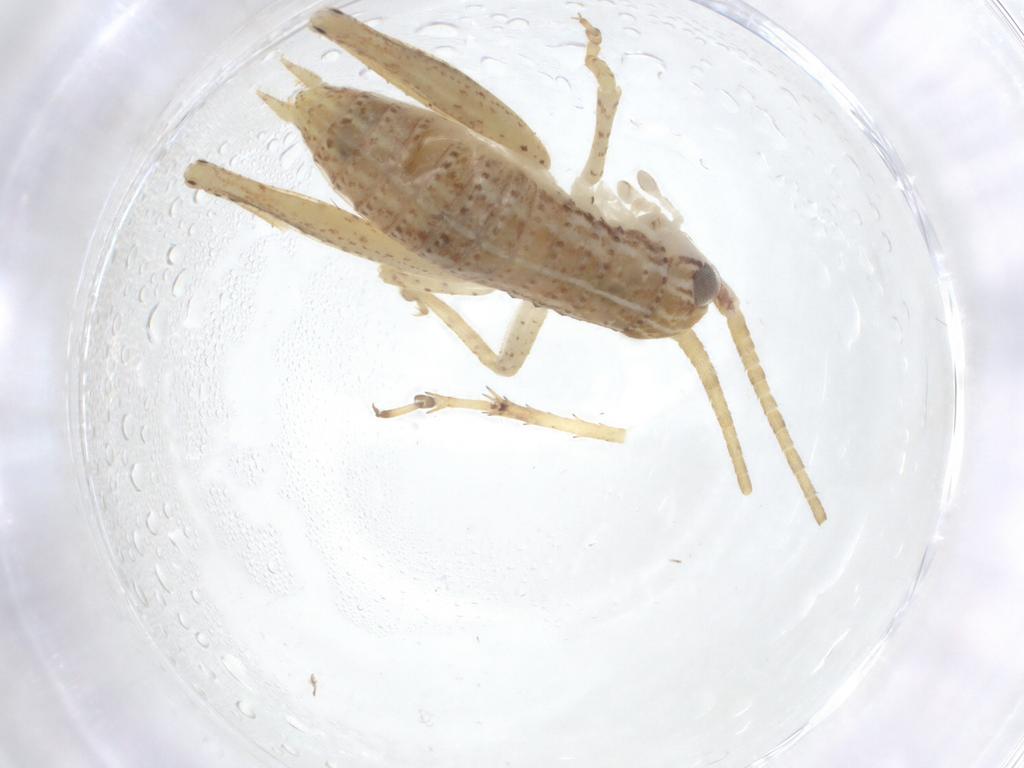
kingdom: Animalia
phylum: Arthropoda
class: Insecta
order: Orthoptera
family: Gryllidae
